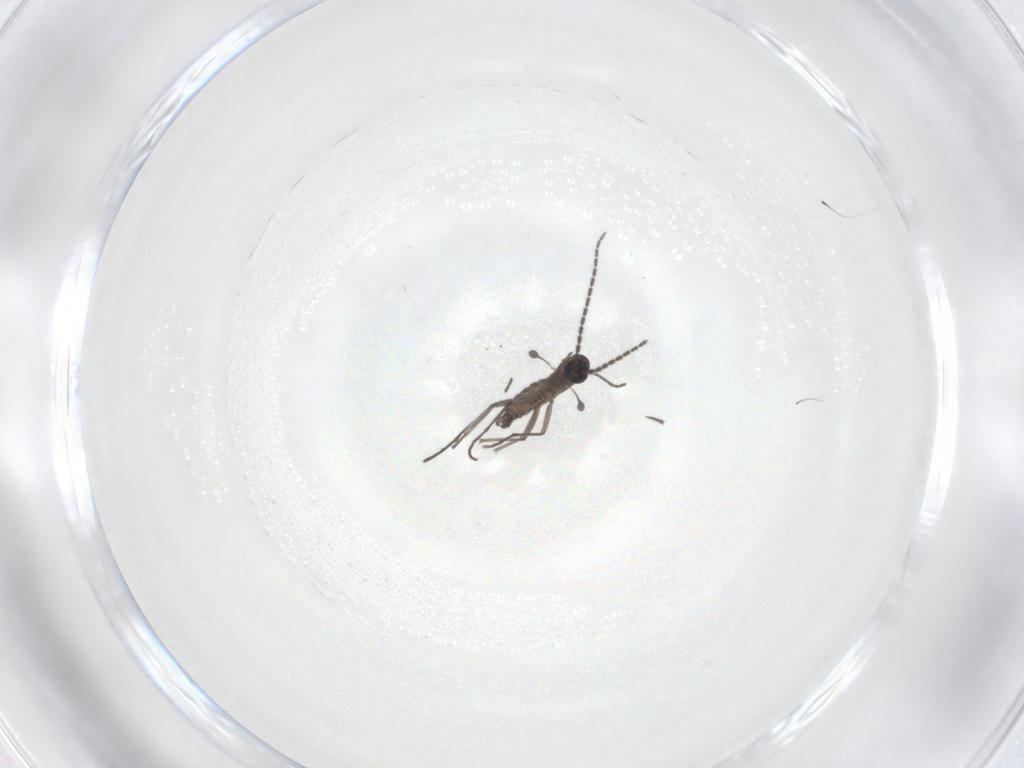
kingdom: Animalia
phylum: Arthropoda
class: Insecta
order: Diptera
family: Sciaridae
